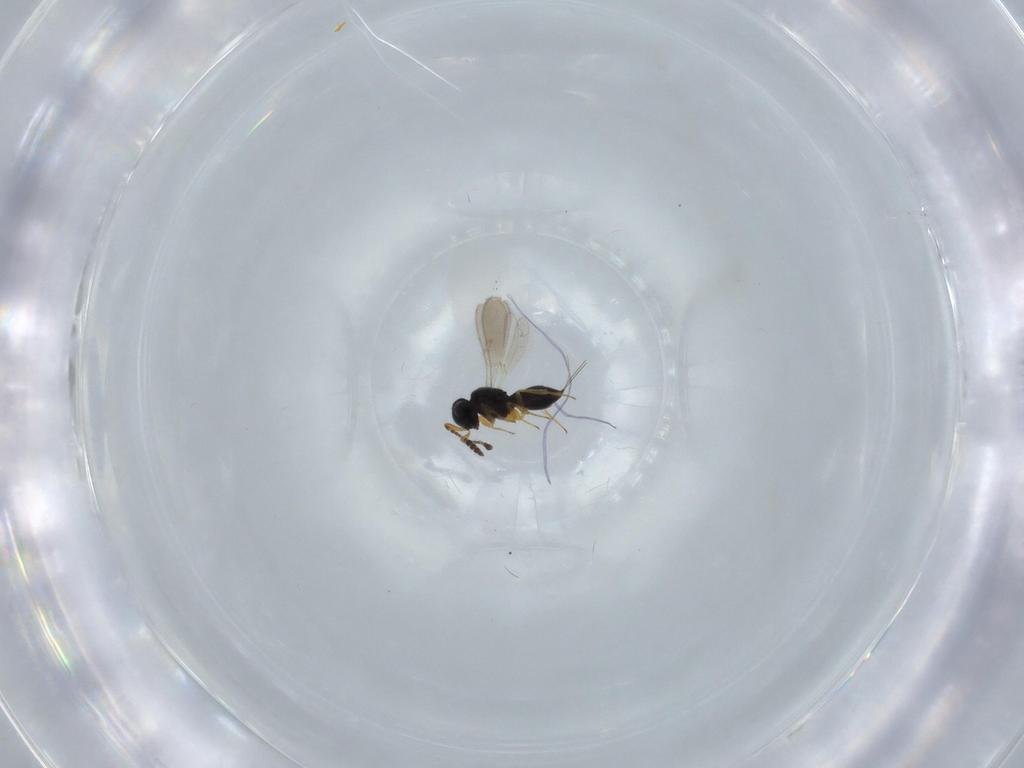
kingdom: Animalia
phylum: Arthropoda
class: Insecta
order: Hymenoptera
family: Scelionidae
